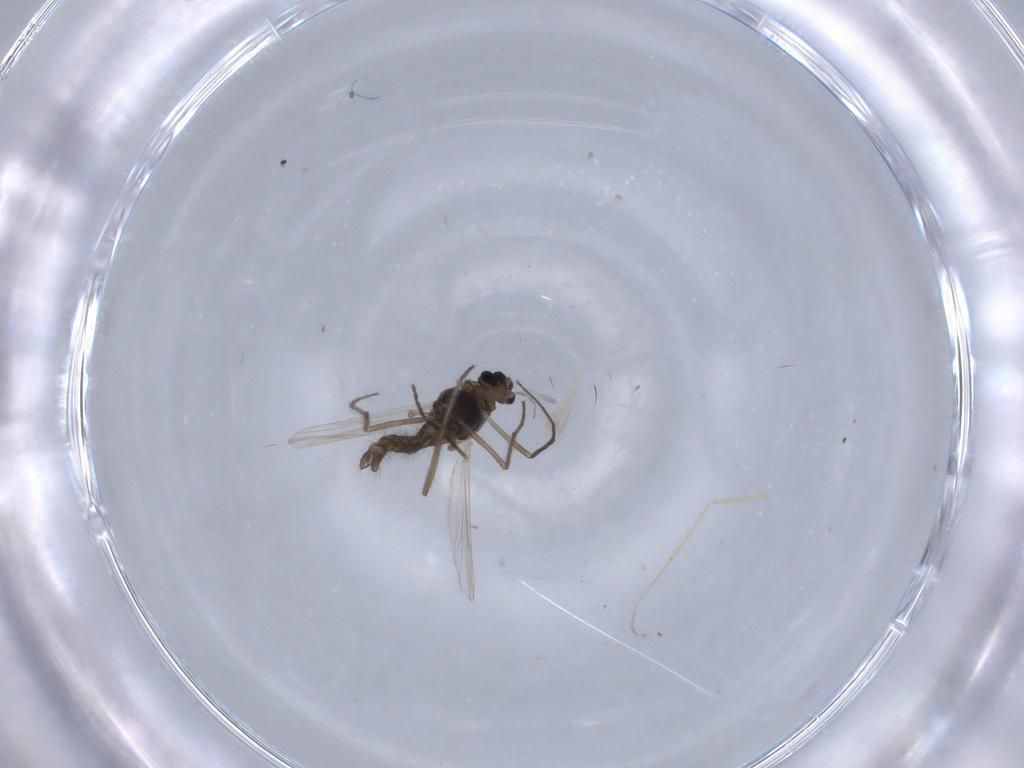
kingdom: Animalia
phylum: Arthropoda
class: Insecta
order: Diptera
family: Chironomidae
